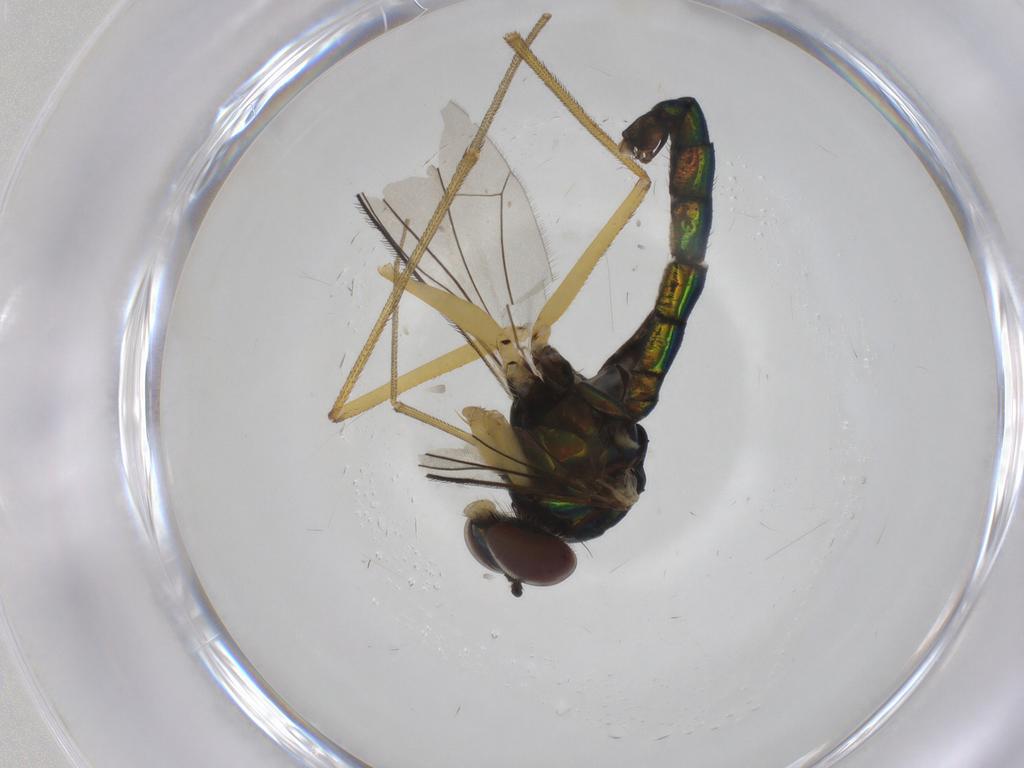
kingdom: Animalia
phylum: Arthropoda
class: Insecta
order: Diptera
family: Dolichopodidae
